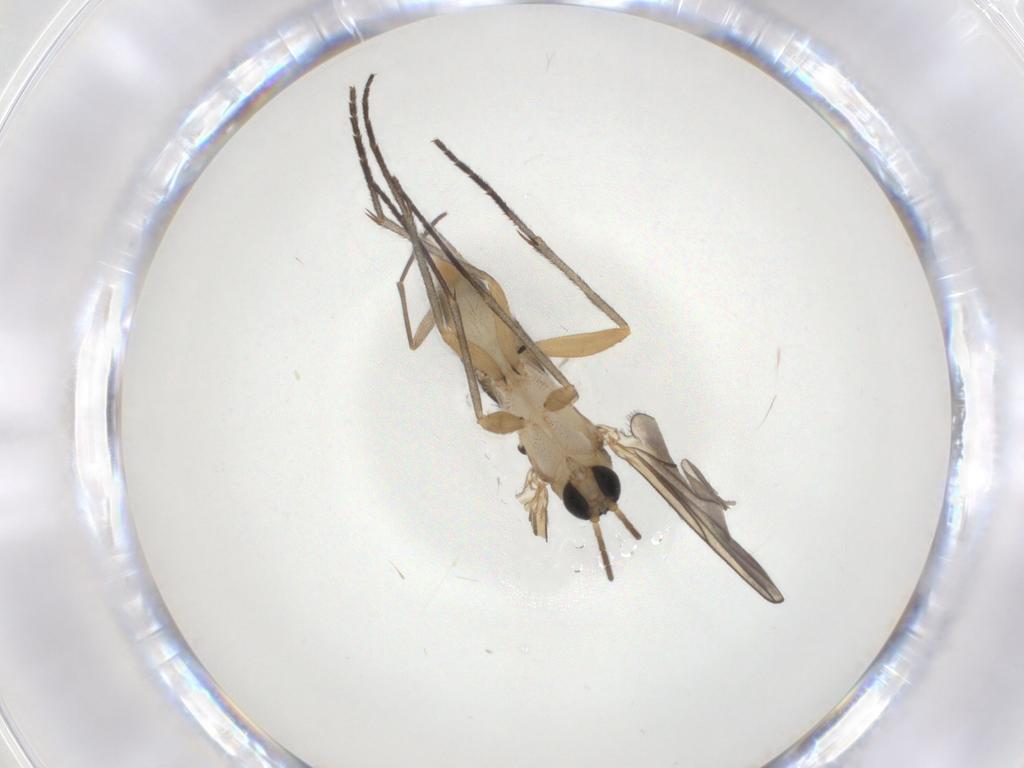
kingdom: Animalia
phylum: Arthropoda
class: Insecta
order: Diptera
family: Sciaridae
